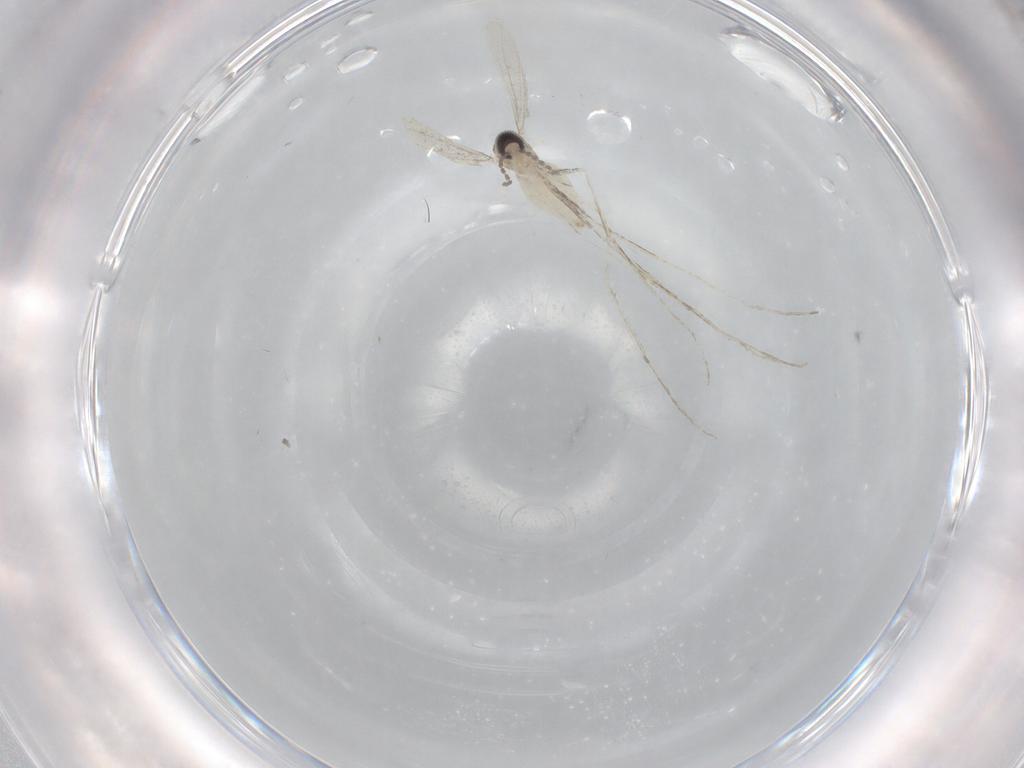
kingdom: Animalia
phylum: Arthropoda
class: Insecta
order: Diptera
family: Cecidomyiidae
